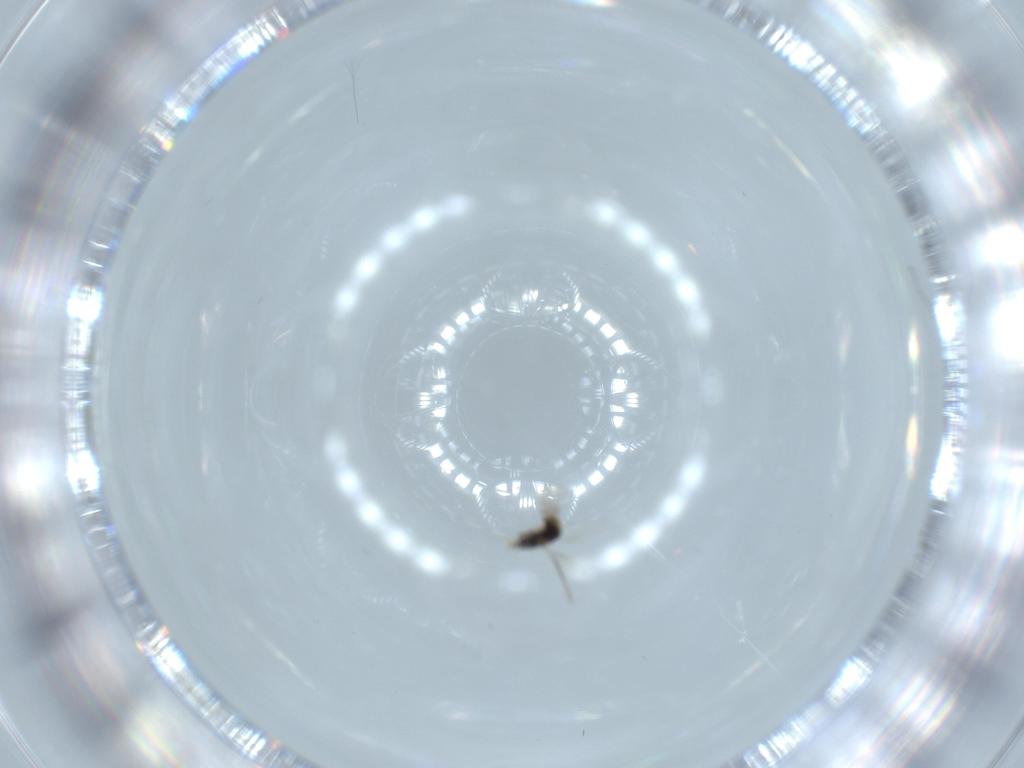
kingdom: Animalia
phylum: Arthropoda
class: Insecta
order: Hymenoptera
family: Aphelinidae
